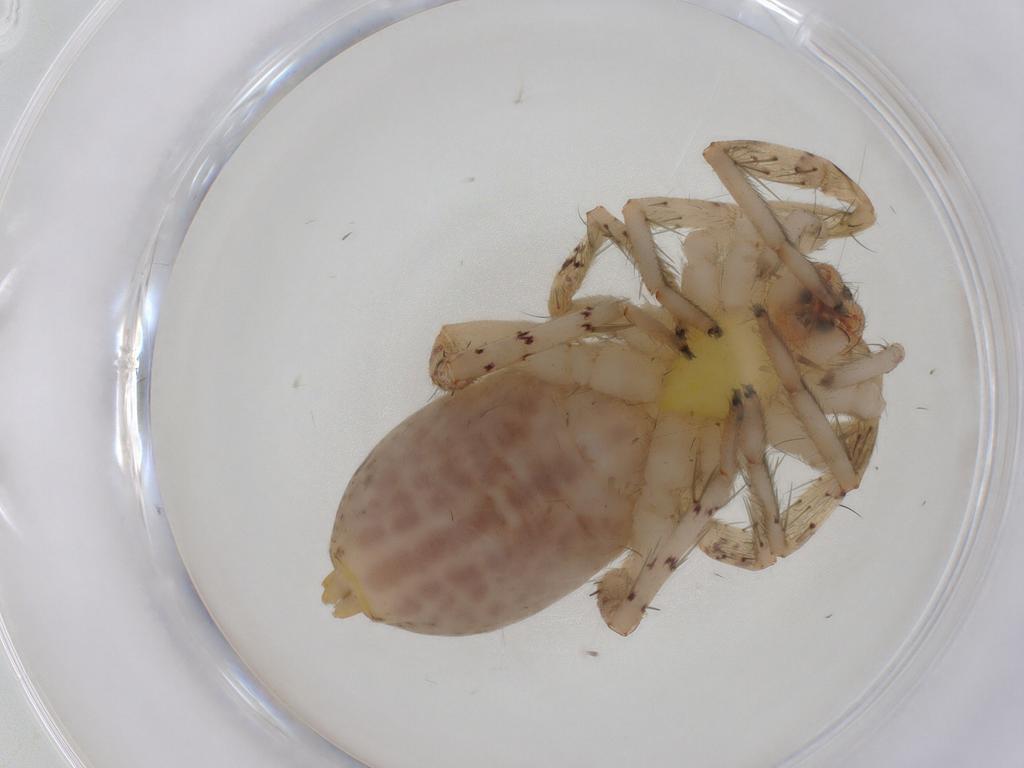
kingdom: Animalia
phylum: Arthropoda
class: Arachnida
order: Araneae
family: Anyphaenidae
